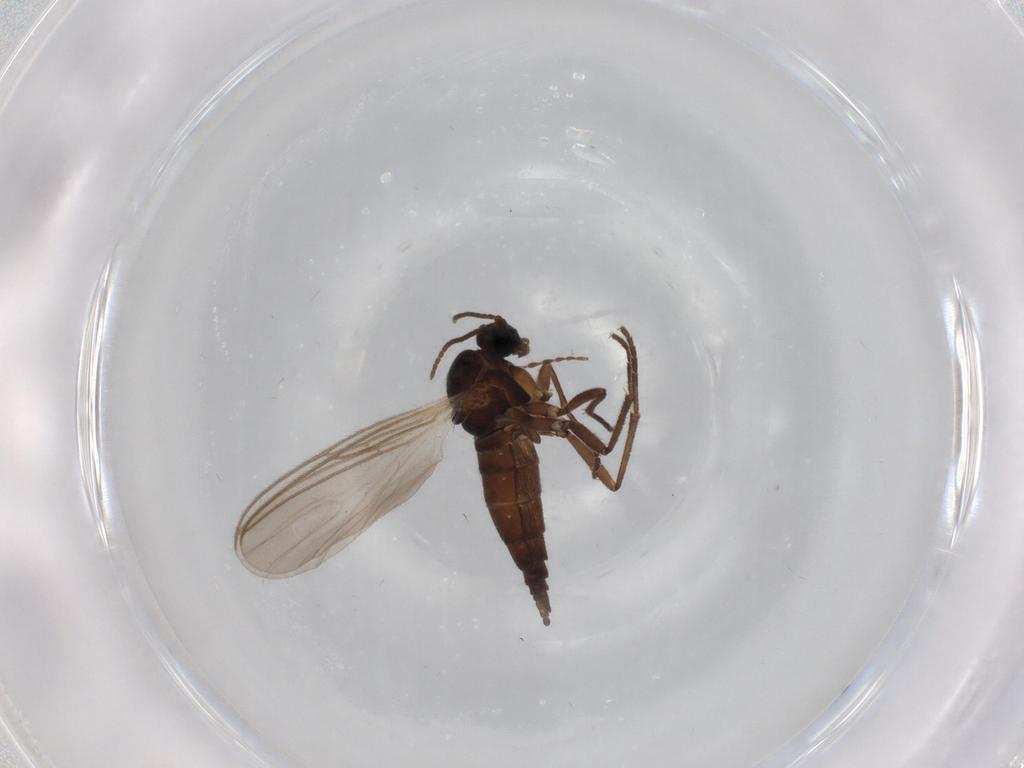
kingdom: Animalia
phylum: Arthropoda
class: Insecta
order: Diptera
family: Sciaridae
